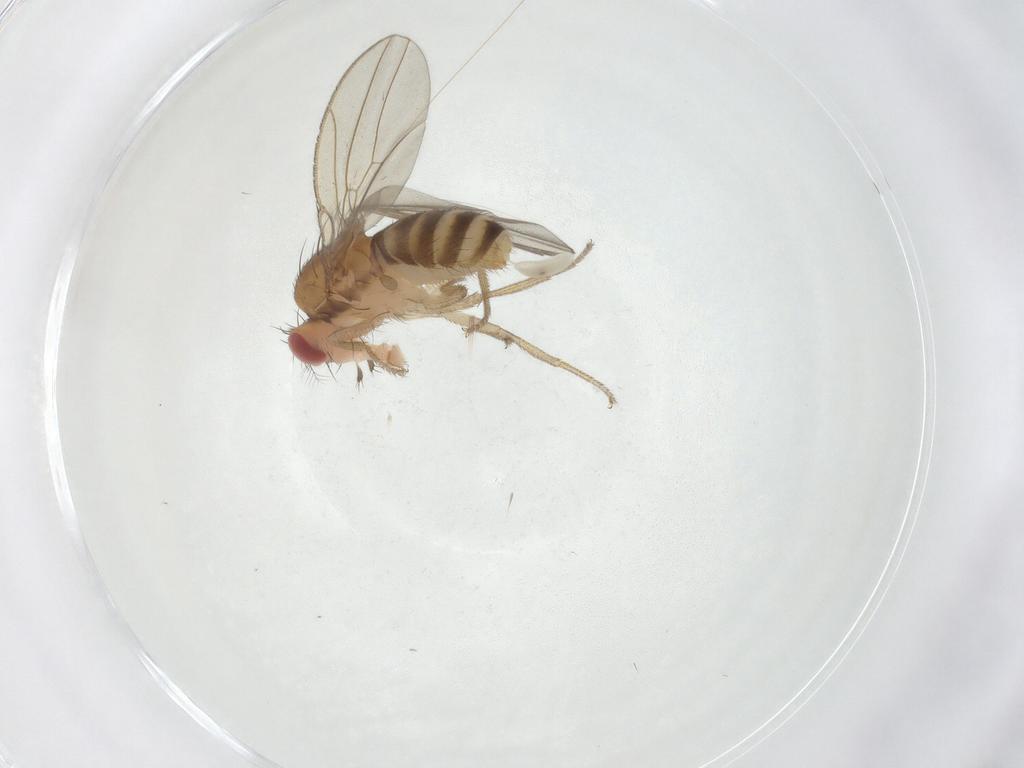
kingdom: Animalia
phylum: Arthropoda
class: Insecta
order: Diptera
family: Drosophilidae
